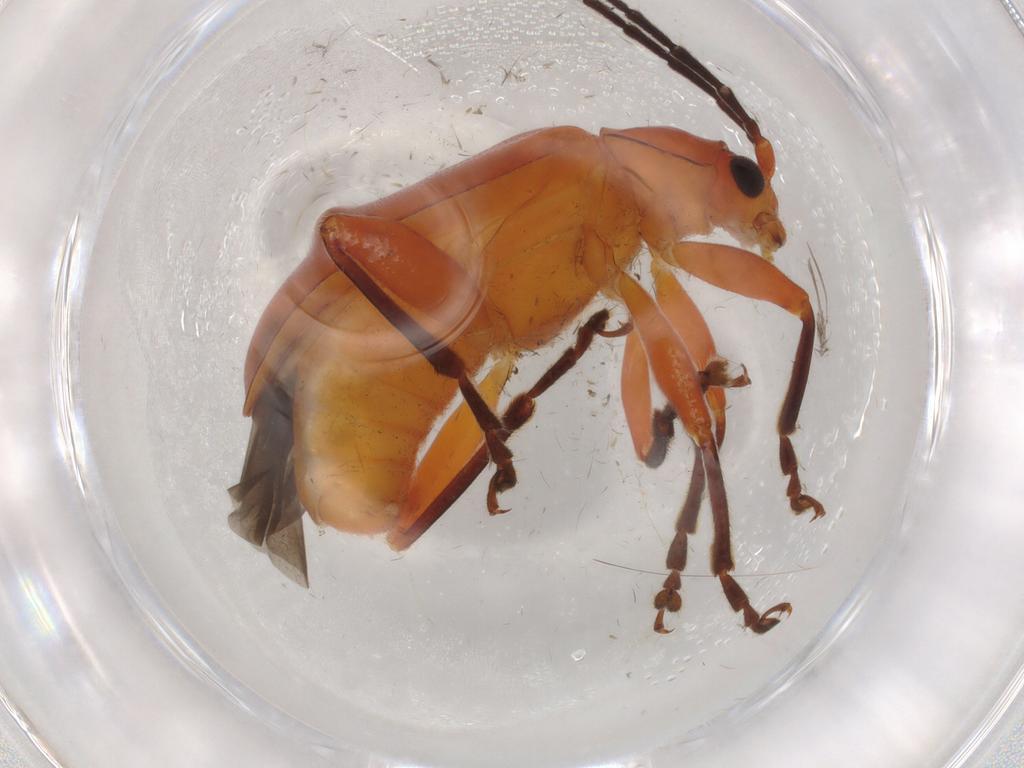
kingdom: Animalia
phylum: Arthropoda
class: Insecta
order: Coleoptera
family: Chrysomelidae
